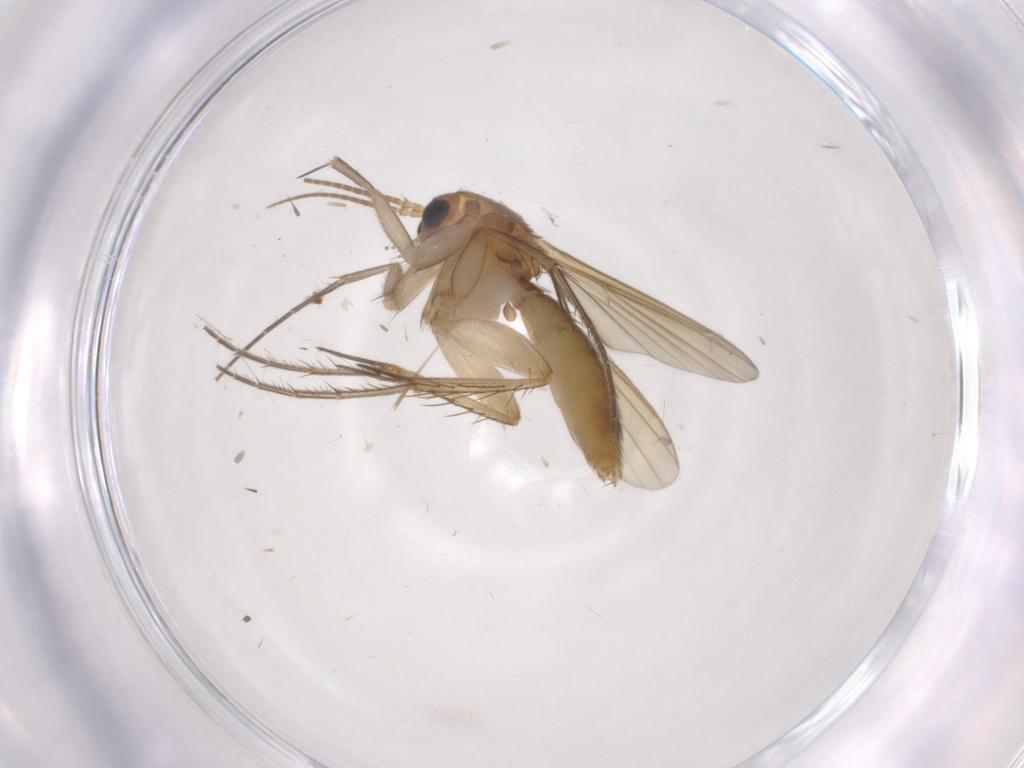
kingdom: Animalia
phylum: Arthropoda
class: Insecta
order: Diptera
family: Mycetophilidae
